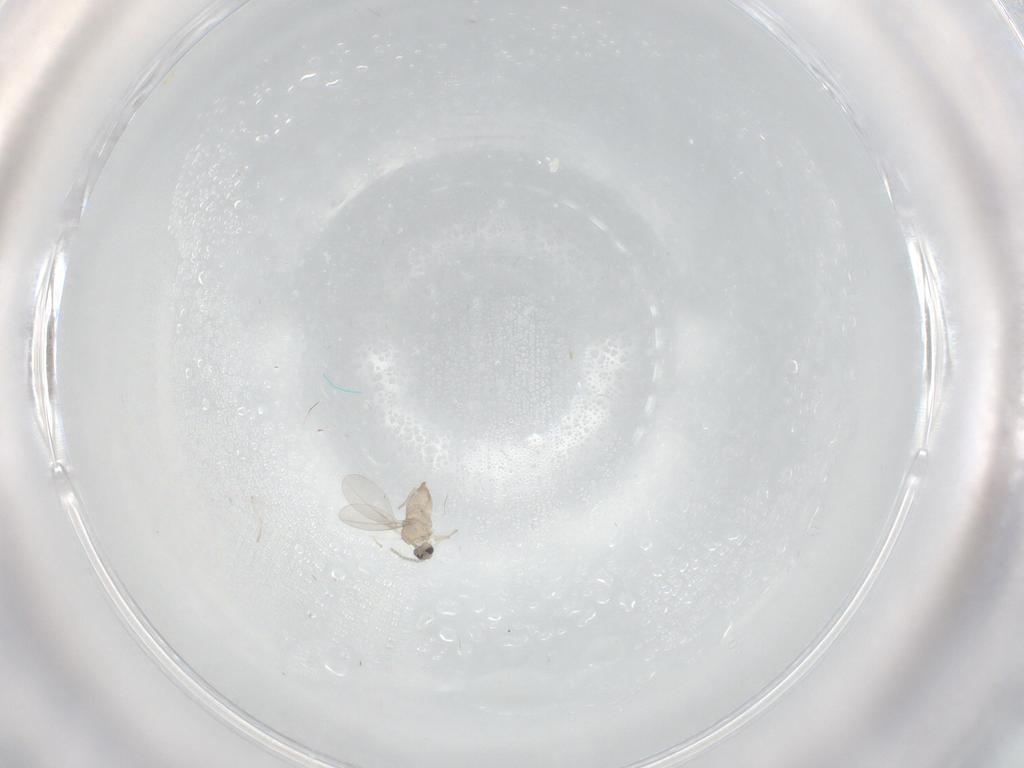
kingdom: Animalia
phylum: Arthropoda
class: Insecta
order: Diptera
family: Cecidomyiidae
